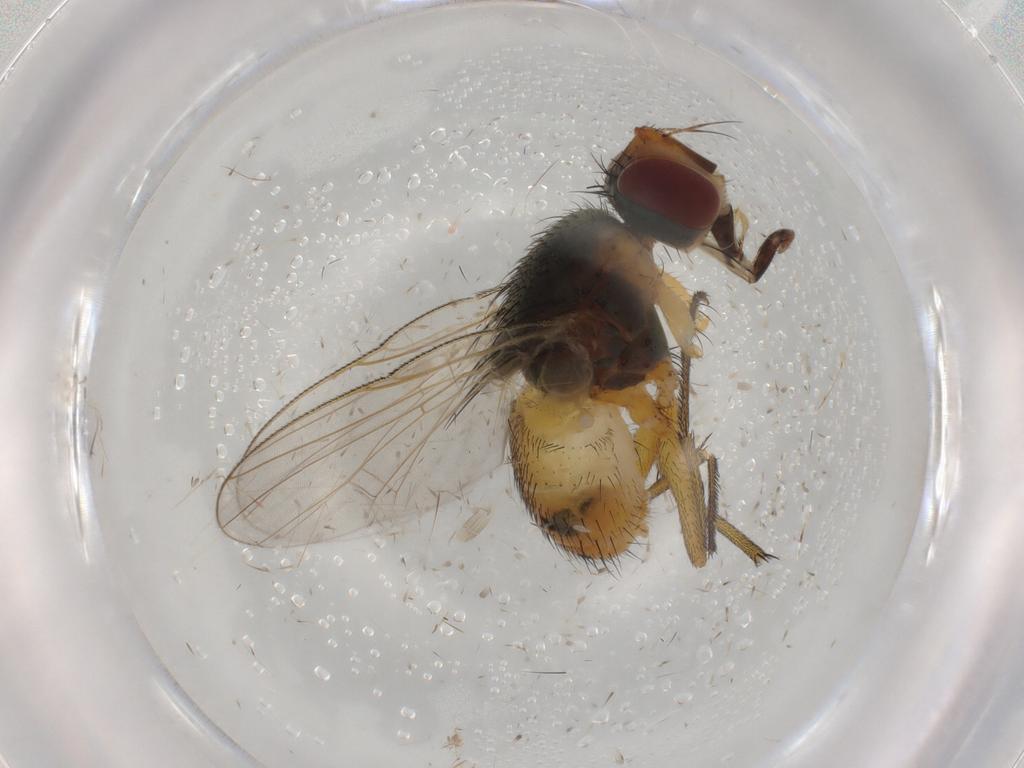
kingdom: Animalia
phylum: Arthropoda
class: Insecta
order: Diptera
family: Muscidae
